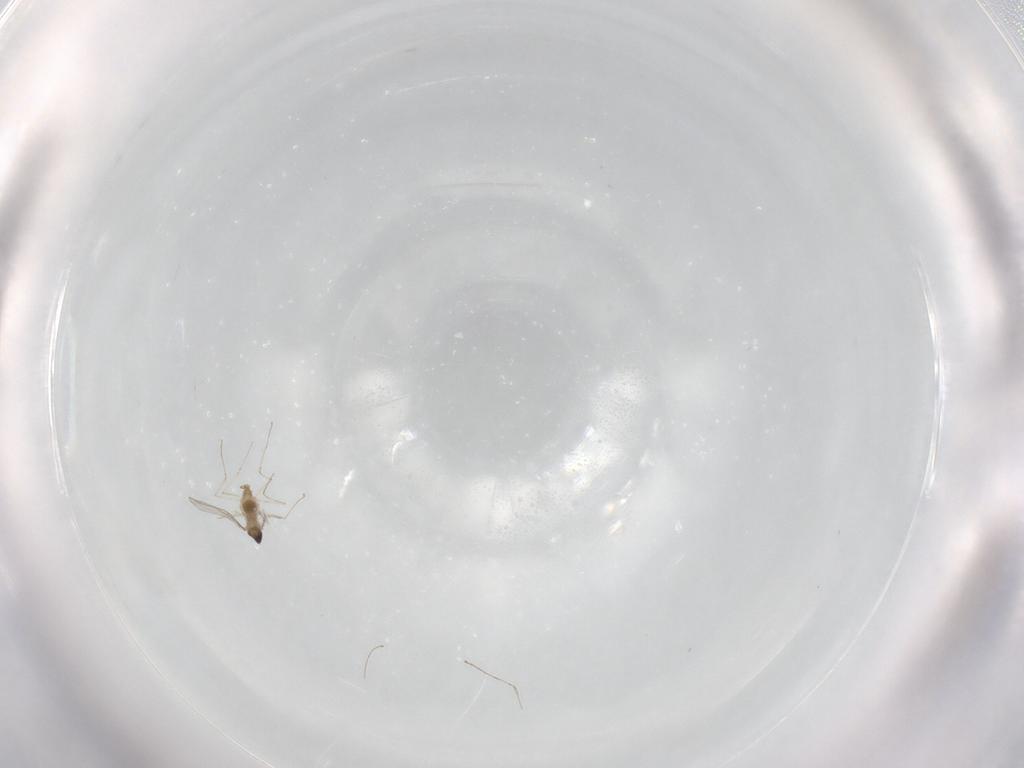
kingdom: Animalia
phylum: Arthropoda
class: Insecta
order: Diptera
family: Cecidomyiidae
